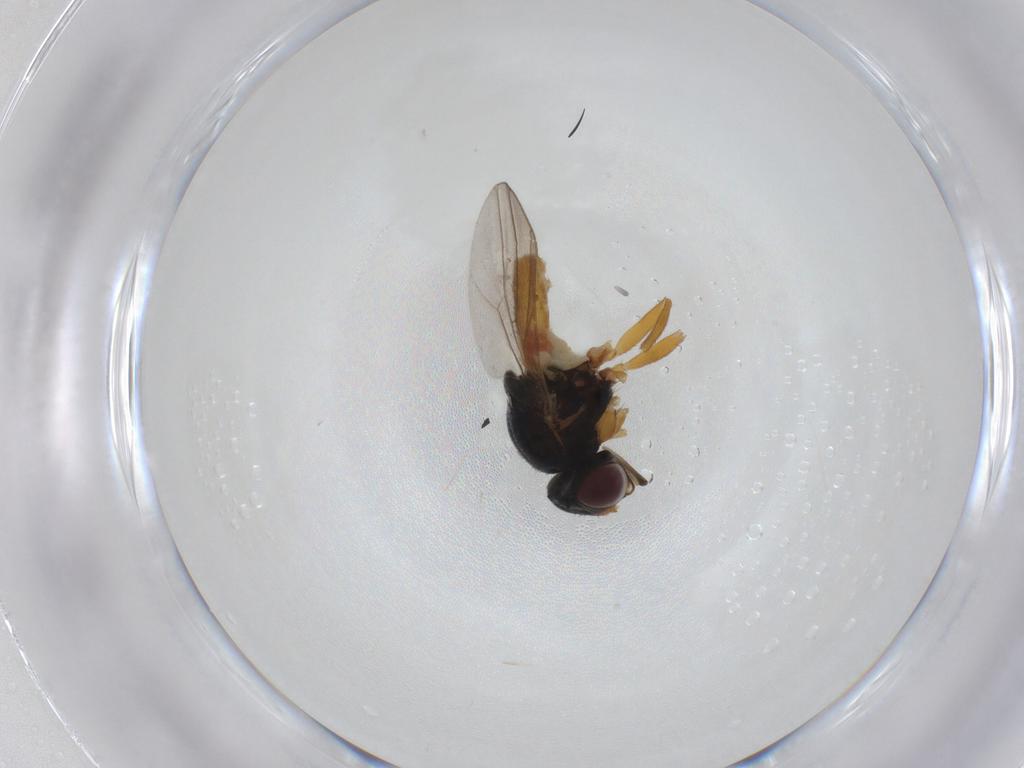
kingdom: Animalia
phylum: Arthropoda
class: Insecta
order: Diptera
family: Chloropidae
